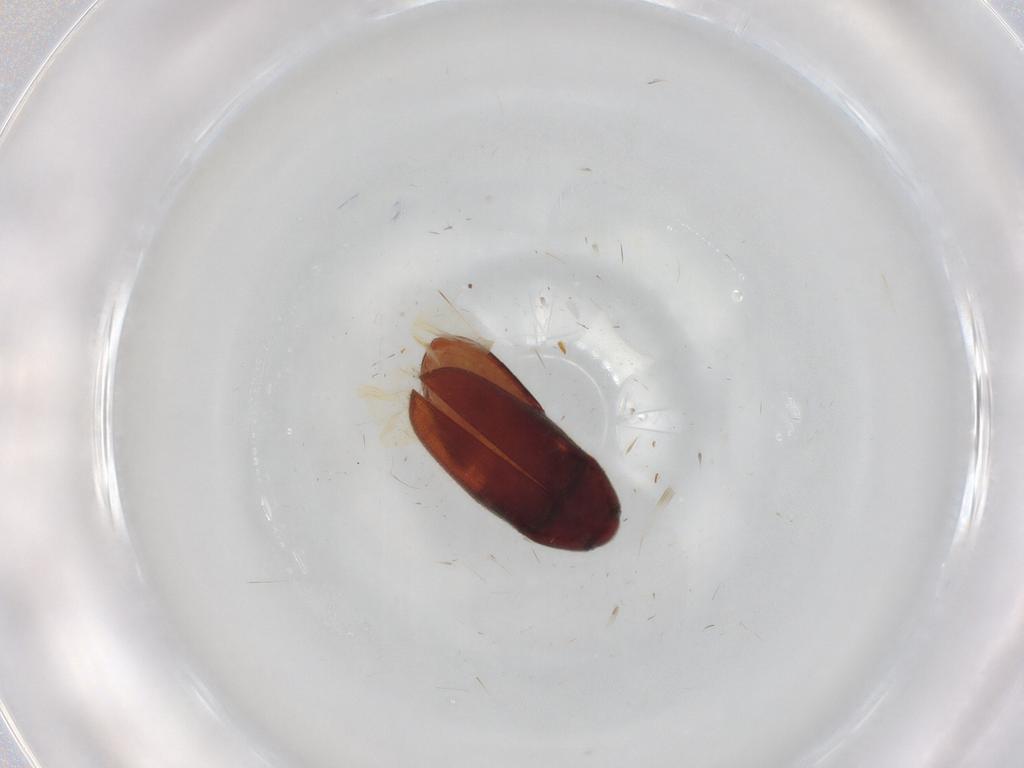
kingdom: Animalia
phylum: Arthropoda
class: Insecta
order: Coleoptera
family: Throscidae
